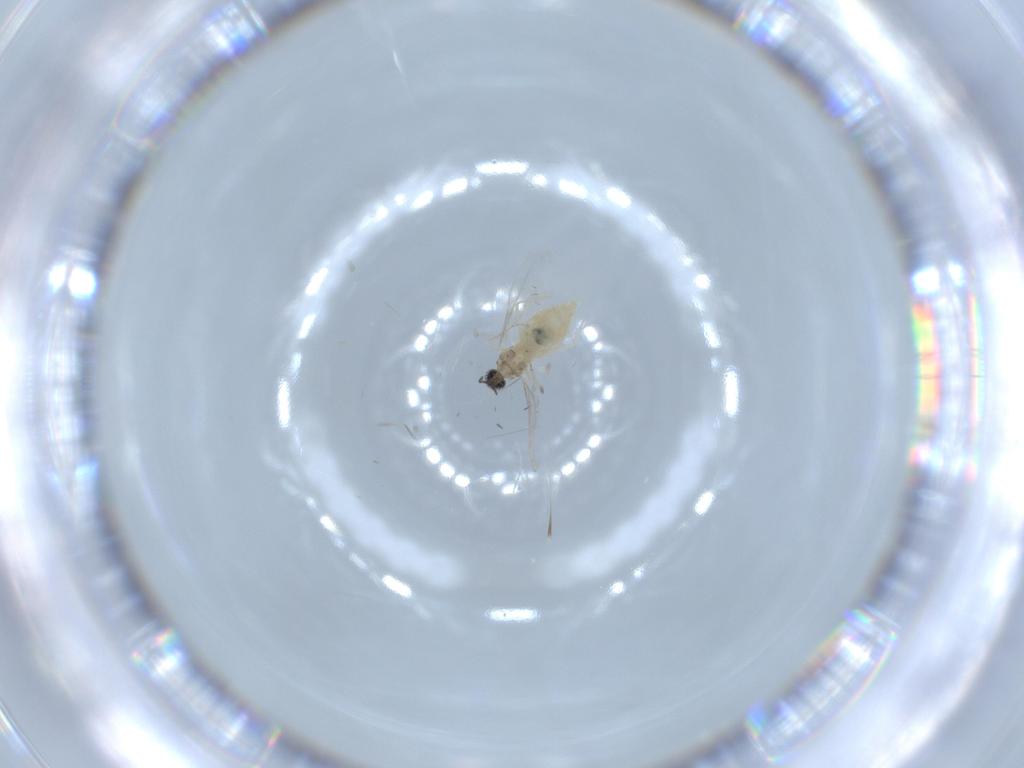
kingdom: Animalia
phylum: Arthropoda
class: Insecta
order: Diptera
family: Cecidomyiidae
